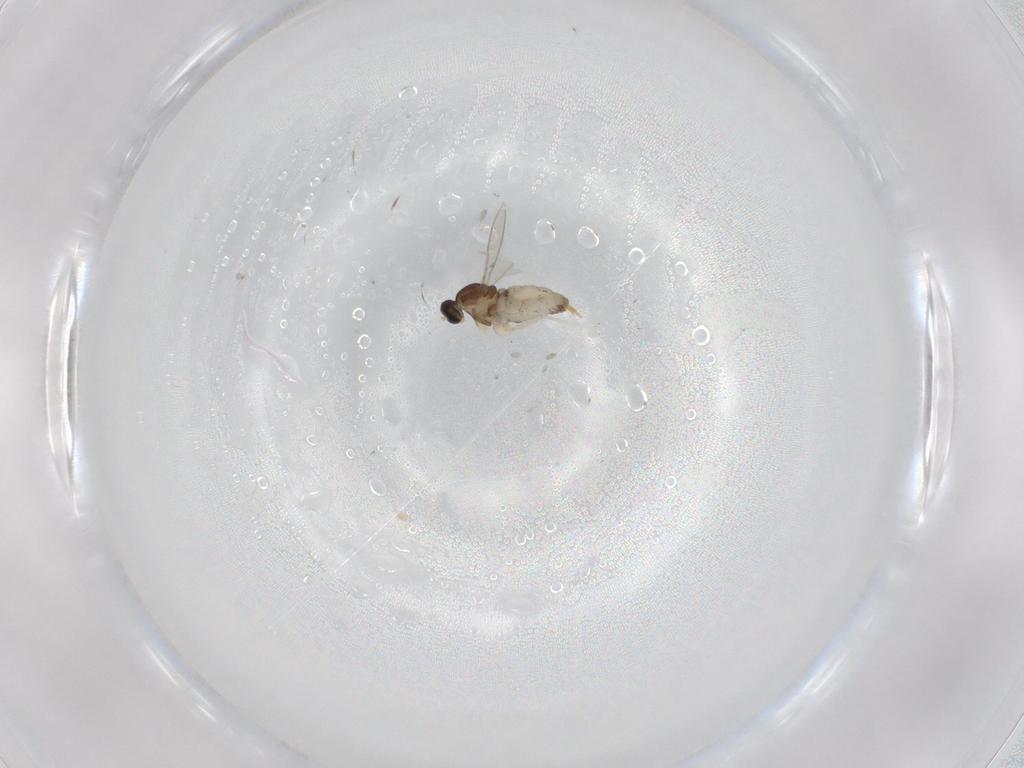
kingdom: Animalia
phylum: Arthropoda
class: Insecta
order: Diptera
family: Cecidomyiidae
